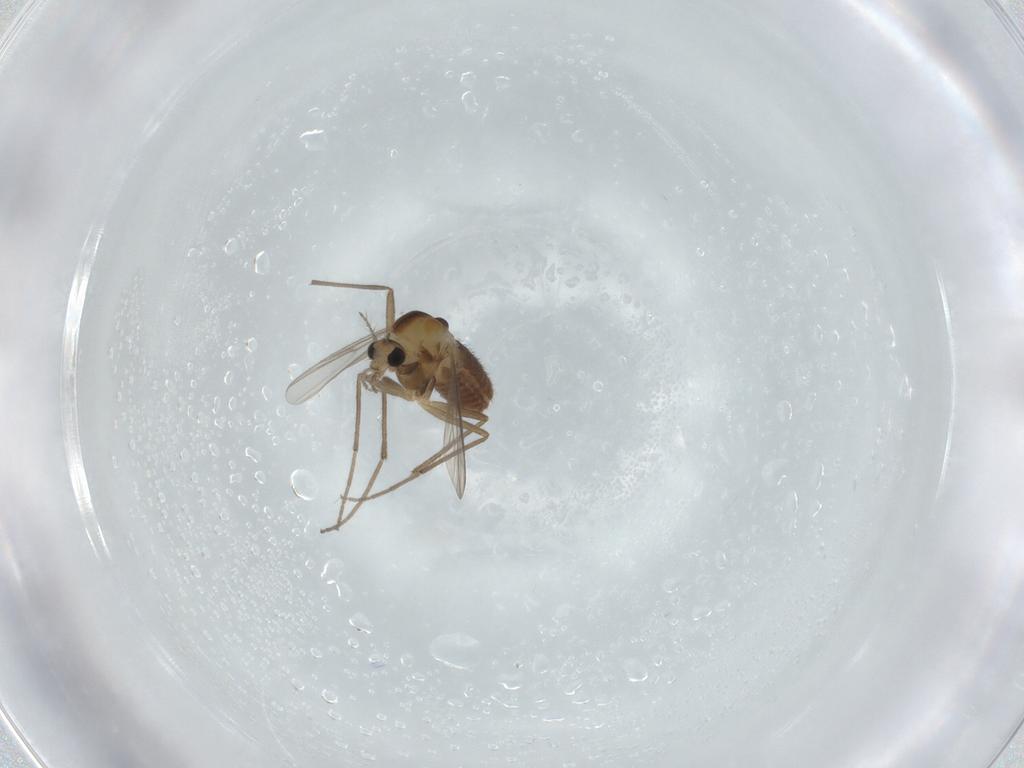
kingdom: Animalia
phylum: Arthropoda
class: Insecta
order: Diptera
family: Chironomidae
